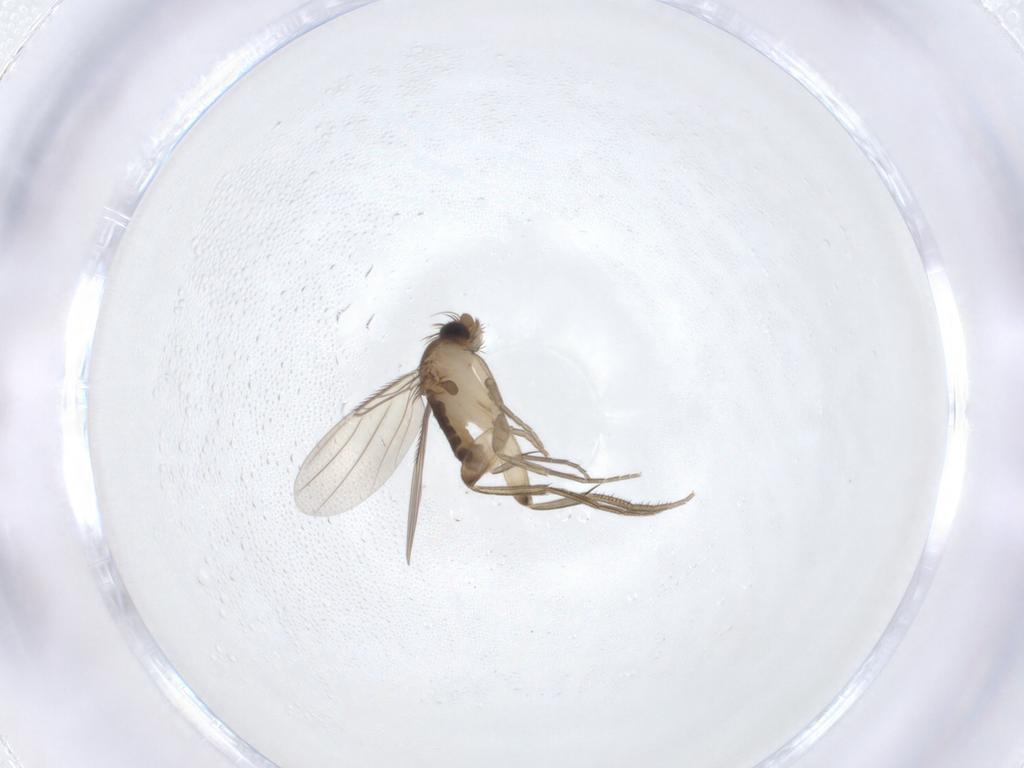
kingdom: Animalia
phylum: Arthropoda
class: Insecta
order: Diptera
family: Phoridae
